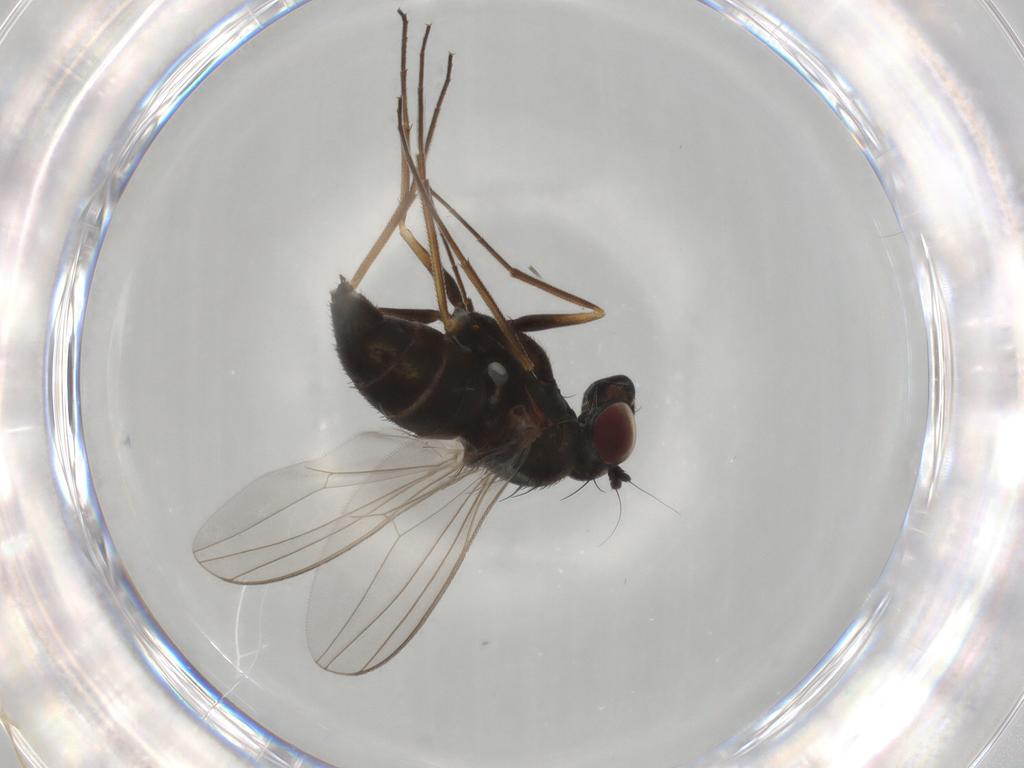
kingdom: Animalia
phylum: Arthropoda
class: Insecta
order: Diptera
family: Dolichopodidae
